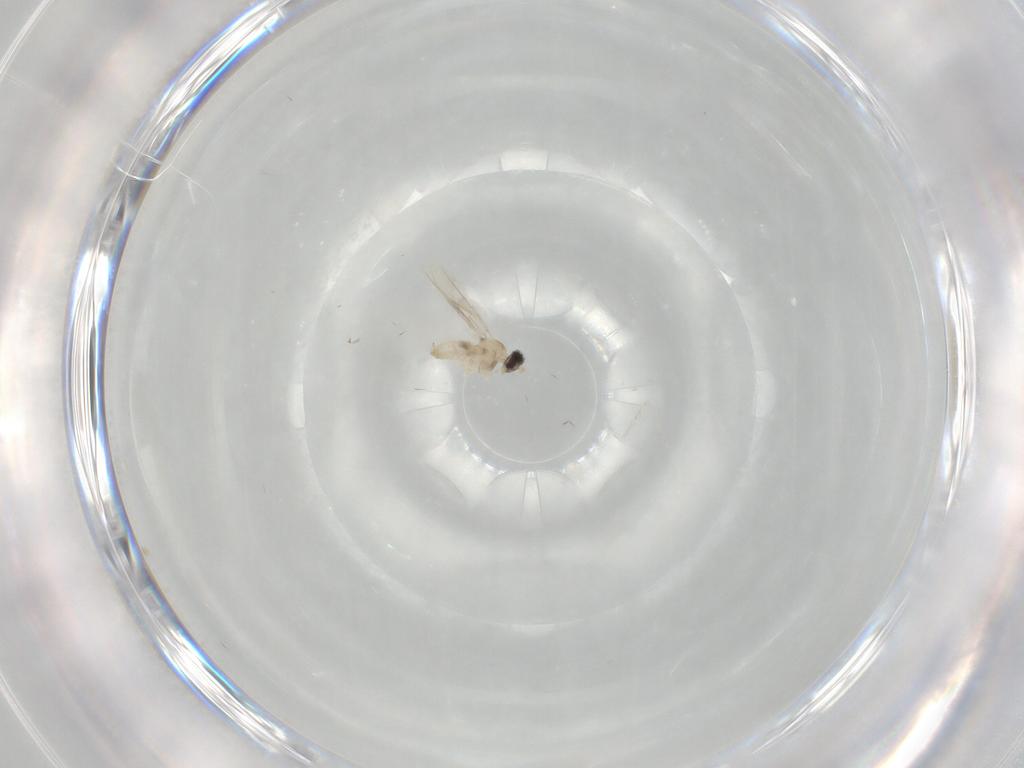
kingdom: Animalia
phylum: Arthropoda
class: Insecta
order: Diptera
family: Cecidomyiidae
